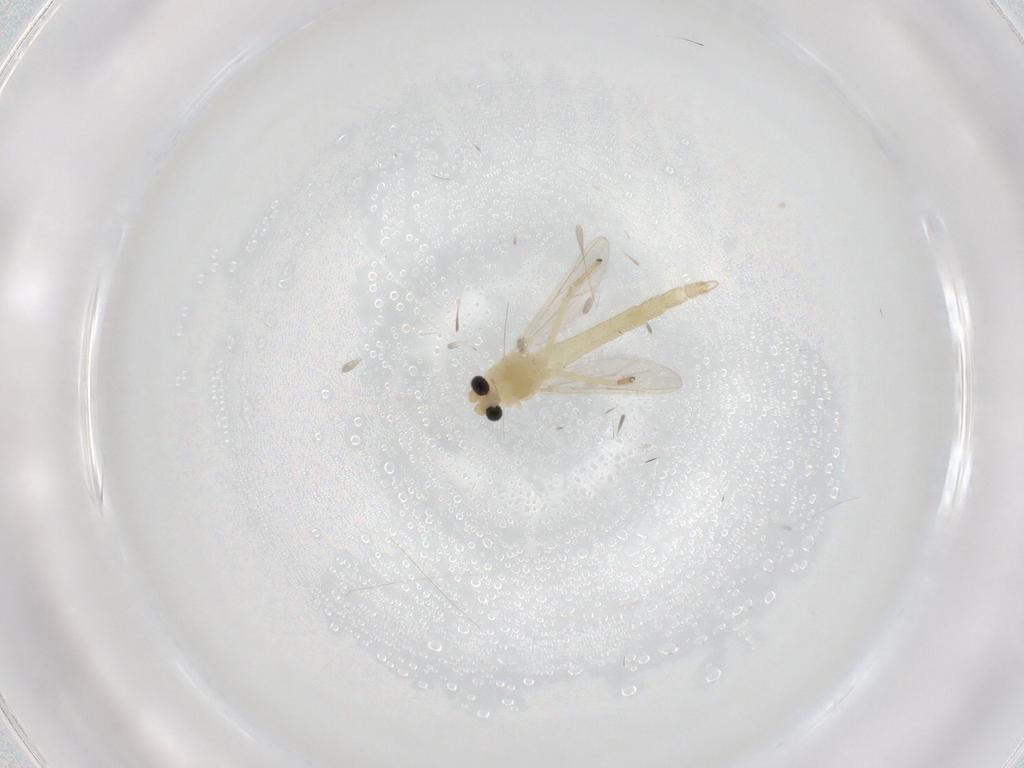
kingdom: Animalia
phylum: Arthropoda
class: Insecta
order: Diptera
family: Chironomidae
